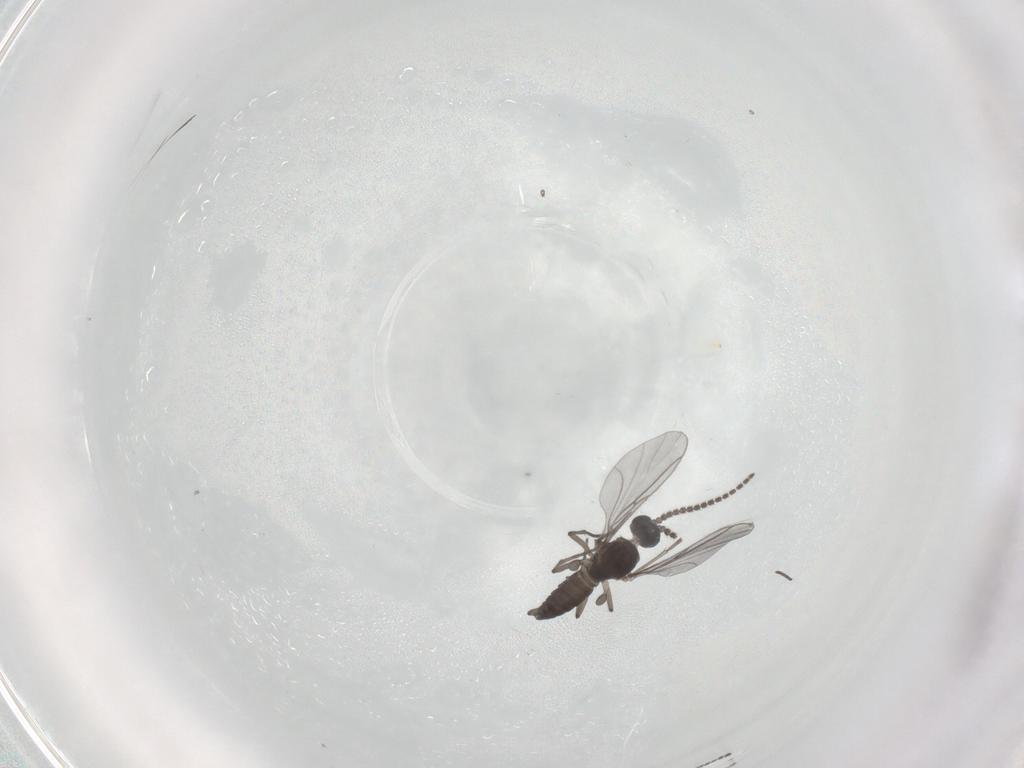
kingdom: Animalia
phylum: Arthropoda
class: Insecta
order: Diptera
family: Sciaridae
